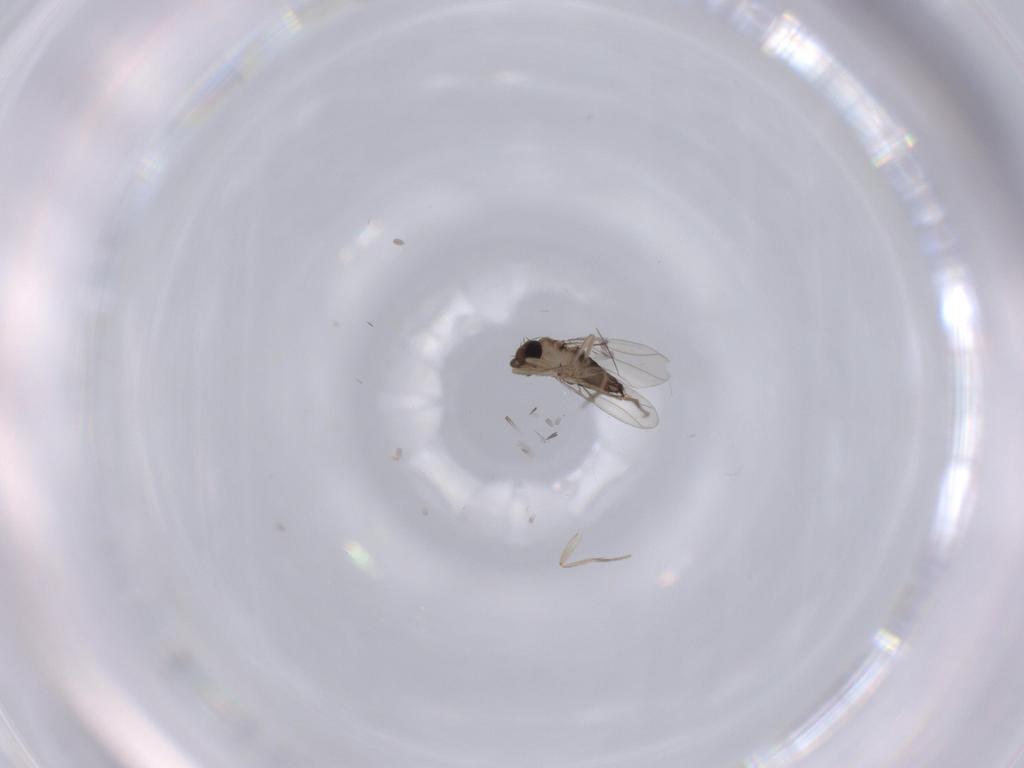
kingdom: Animalia
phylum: Arthropoda
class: Insecta
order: Diptera
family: Phoridae
